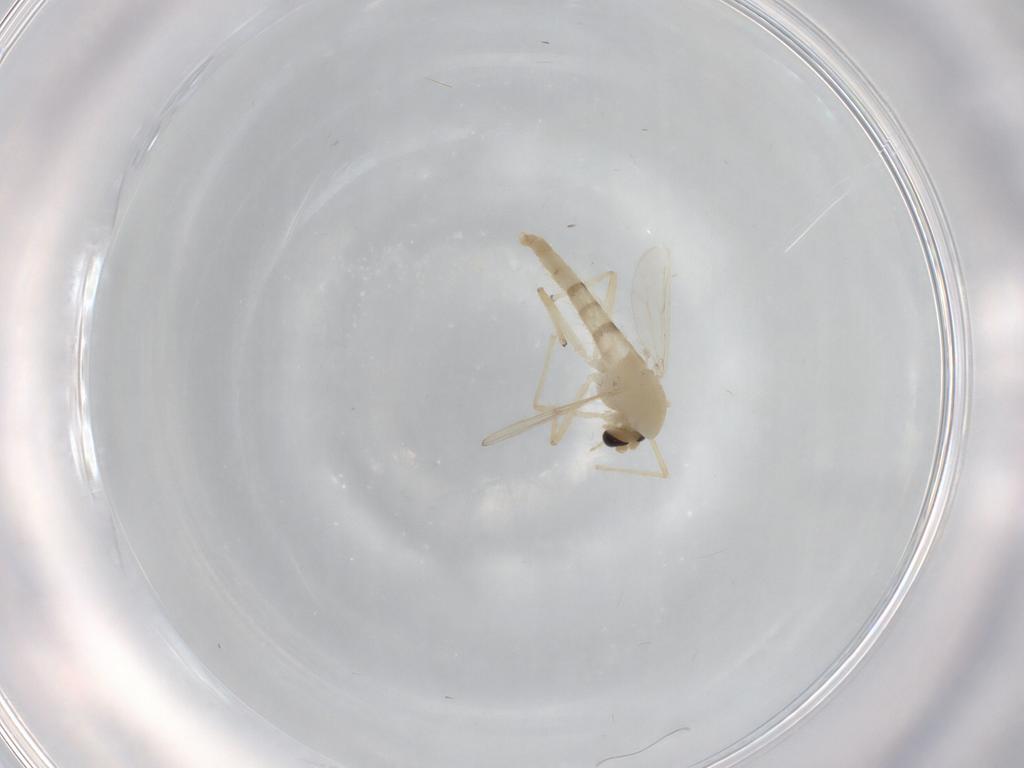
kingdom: Animalia
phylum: Arthropoda
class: Insecta
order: Diptera
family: Chironomidae
